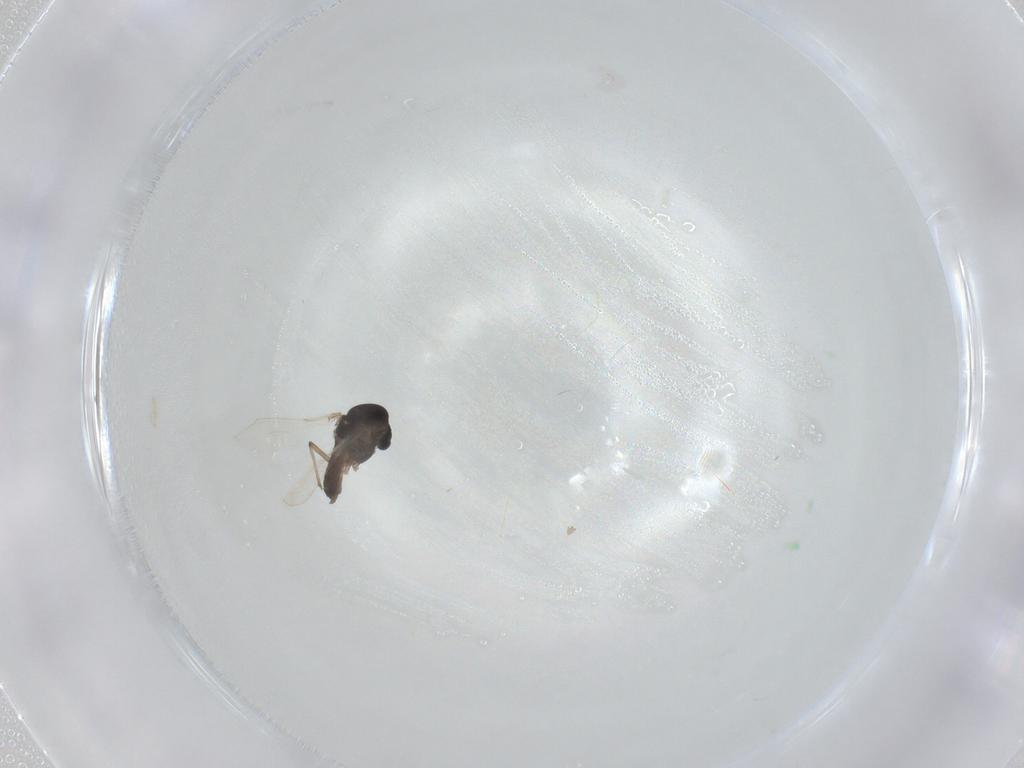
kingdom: Animalia
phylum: Arthropoda
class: Insecta
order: Diptera
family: Chironomidae
